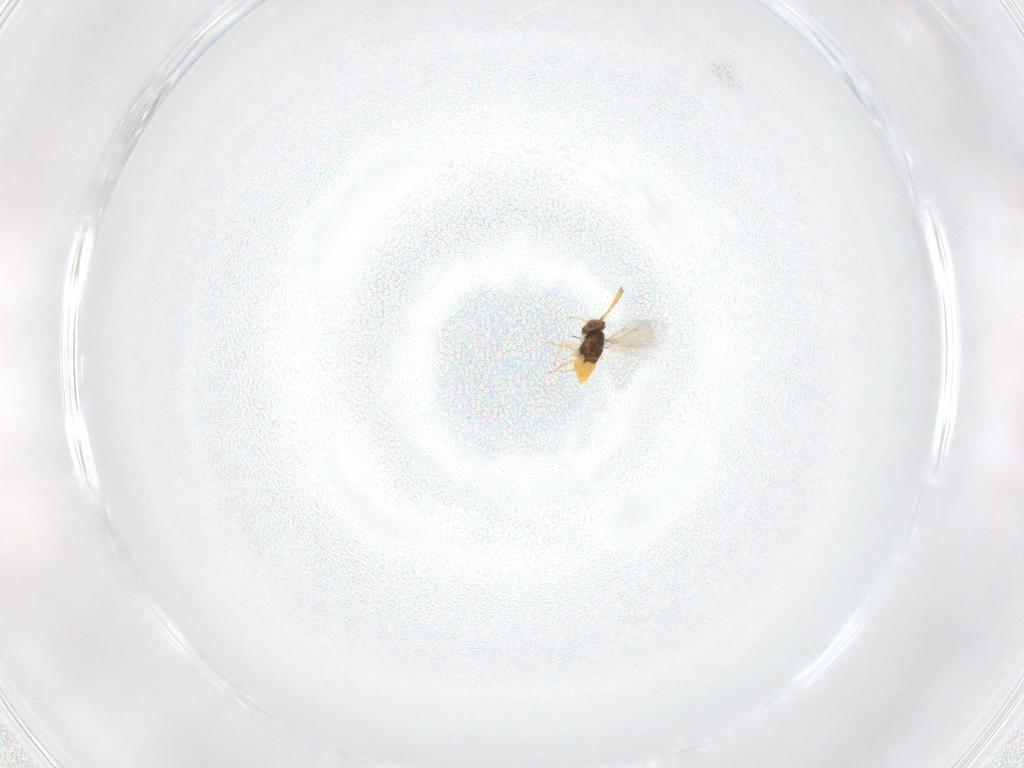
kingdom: Animalia
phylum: Arthropoda
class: Insecta
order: Hymenoptera
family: Aphelinidae
